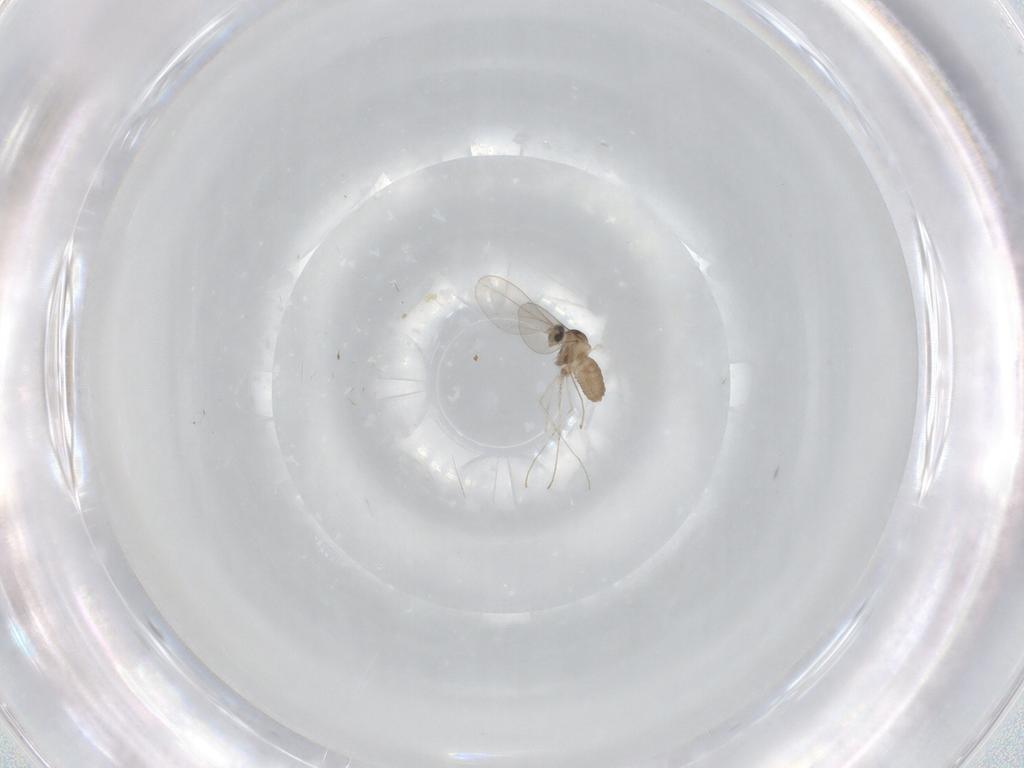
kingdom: Animalia
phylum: Arthropoda
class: Insecta
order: Diptera
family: Cecidomyiidae
